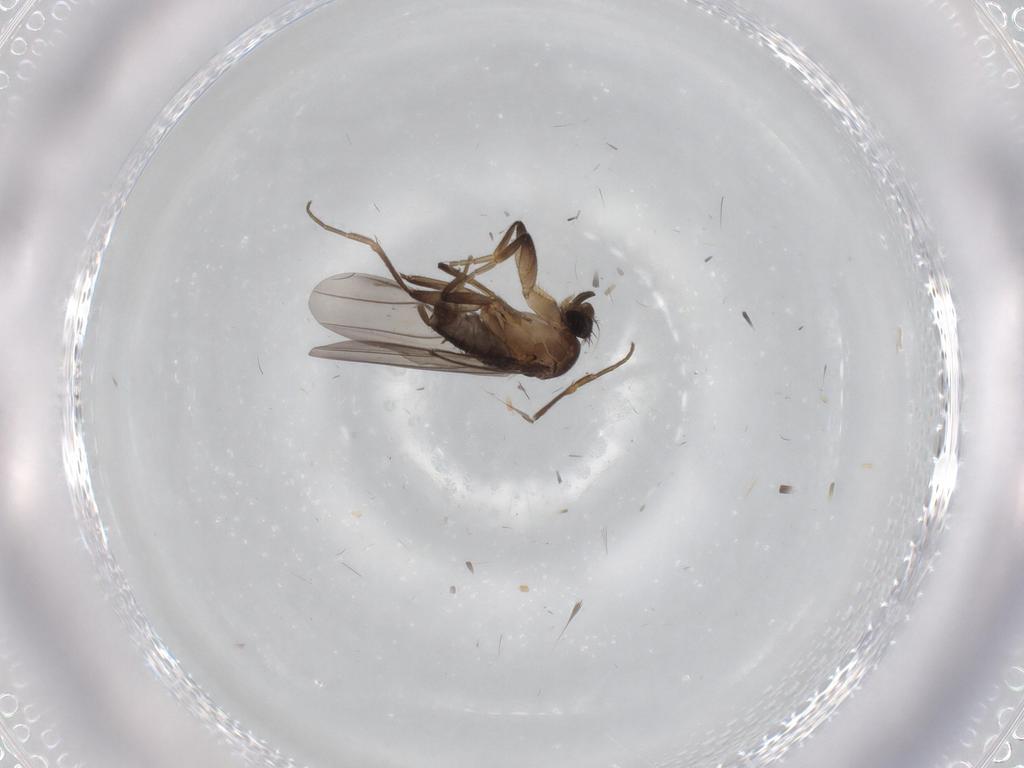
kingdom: Animalia
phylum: Arthropoda
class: Insecta
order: Diptera
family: Phoridae
